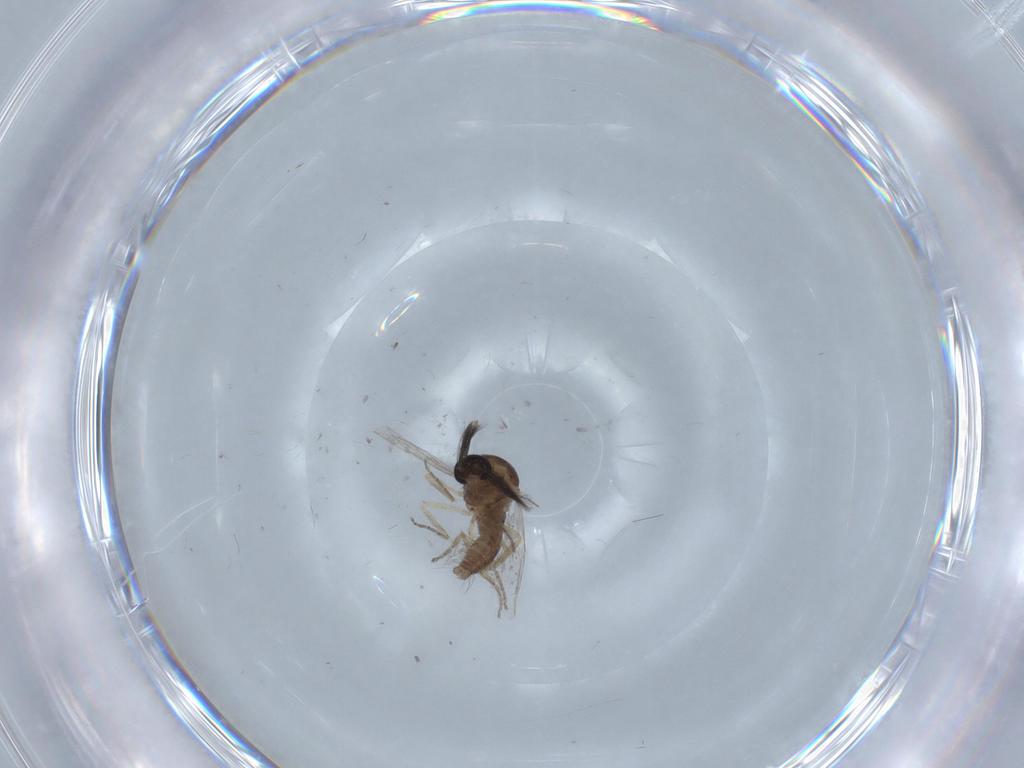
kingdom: Animalia
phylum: Arthropoda
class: Insecta
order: Diptera
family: Ceratopogonidae
